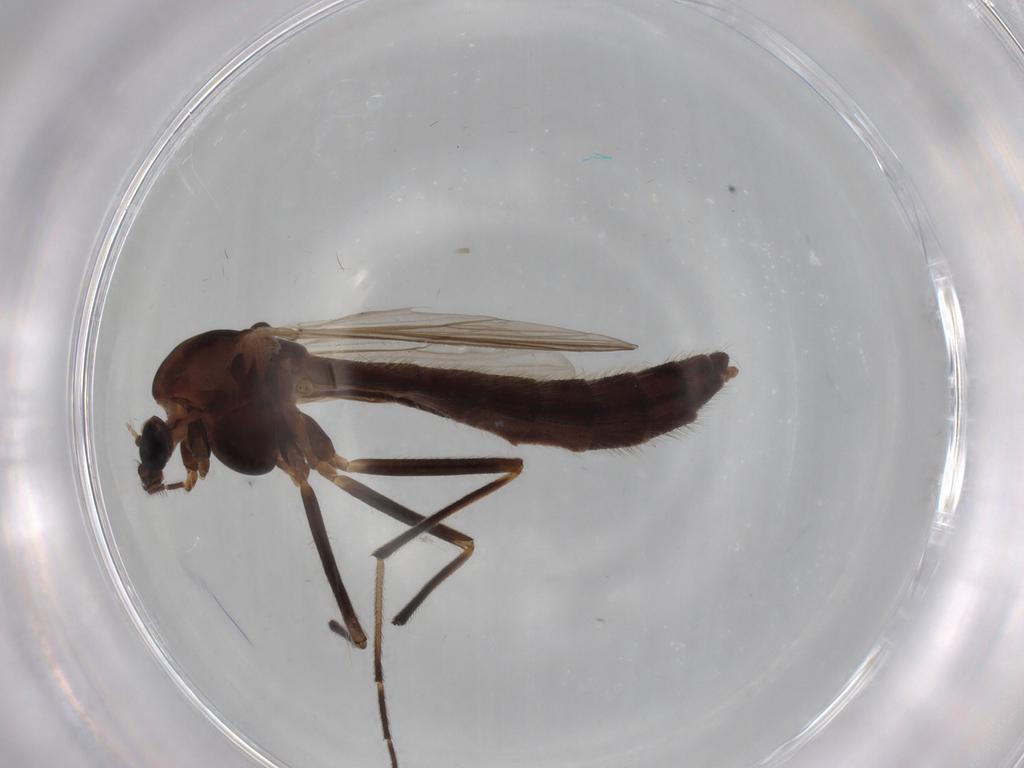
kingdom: Animalia
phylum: Arthropoda
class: Insecta
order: Diptera
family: Chironomidae
